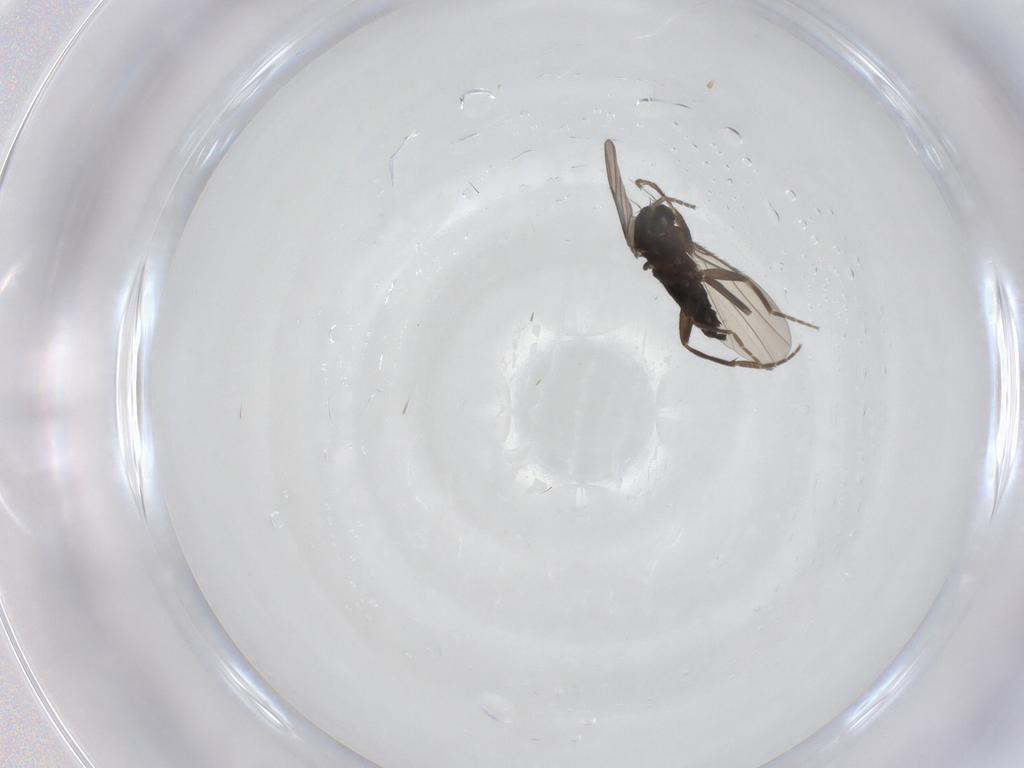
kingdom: Animalia
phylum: Arthropoda
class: Insecta
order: Diptera
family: Phoridae
